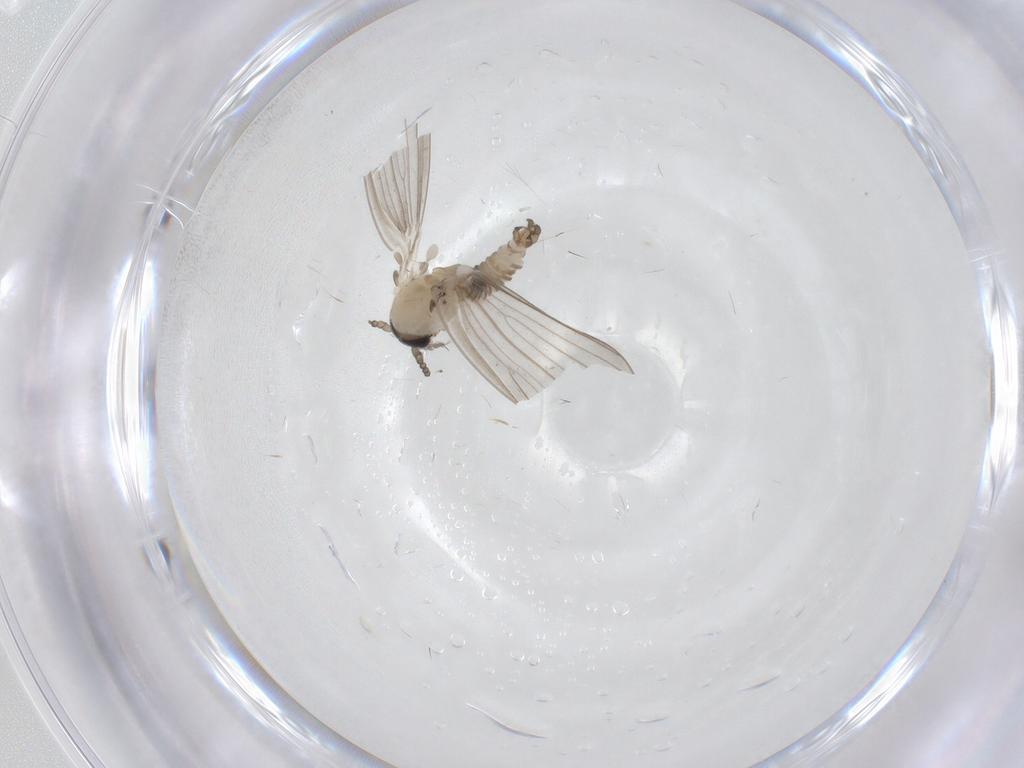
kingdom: Animalia
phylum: Arthropoda
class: Insecta
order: Diptera
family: Psychodidae
